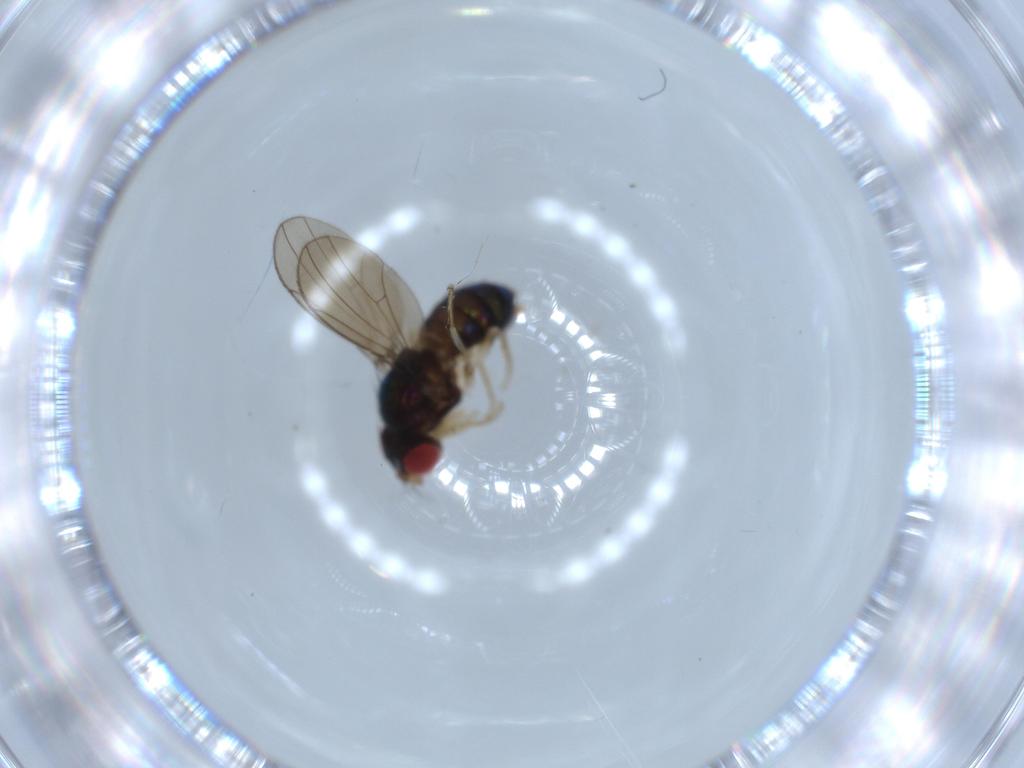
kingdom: Animalia
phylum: Arthropoda
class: Insecta
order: Diptera
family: Drosophilidae
